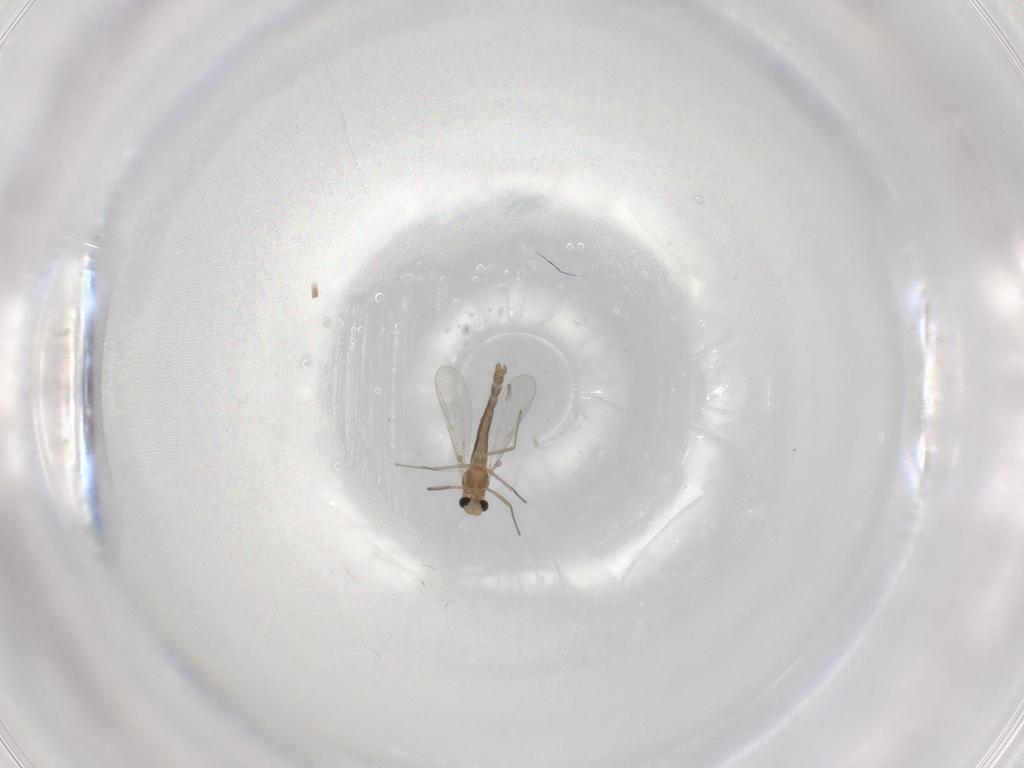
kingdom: Animalia
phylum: Arthropoda
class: Insecta
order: Diptera
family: Chironomidae
